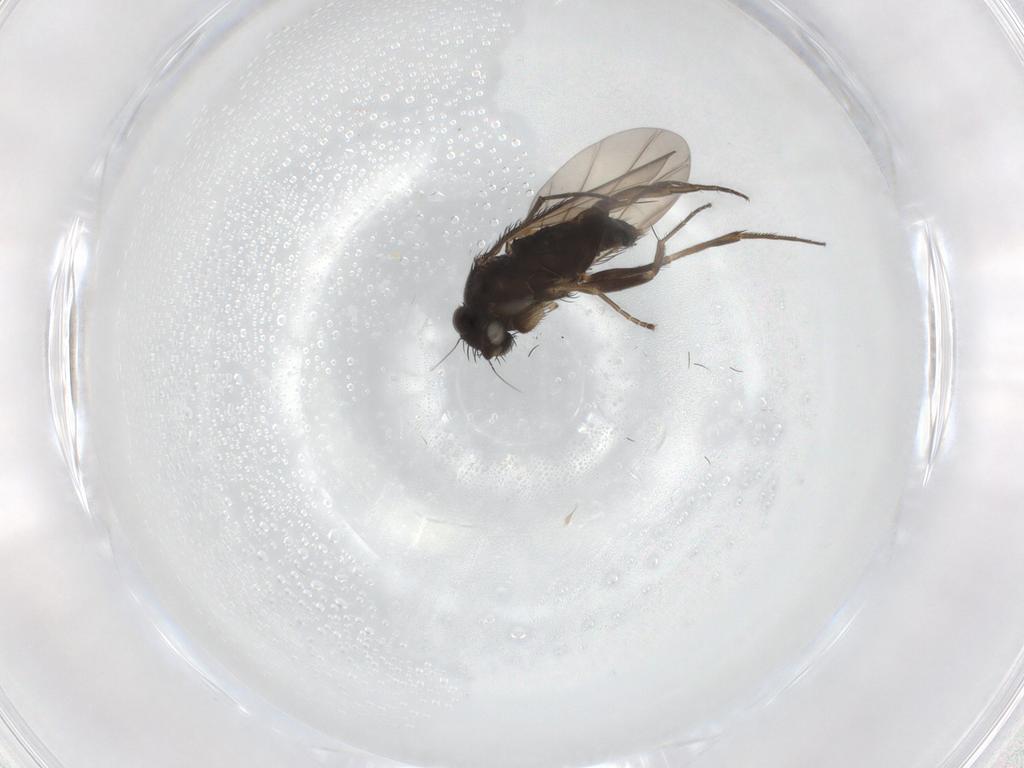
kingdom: Animalia
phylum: Arthropoda
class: Insecta
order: Diptera
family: Phoridae
